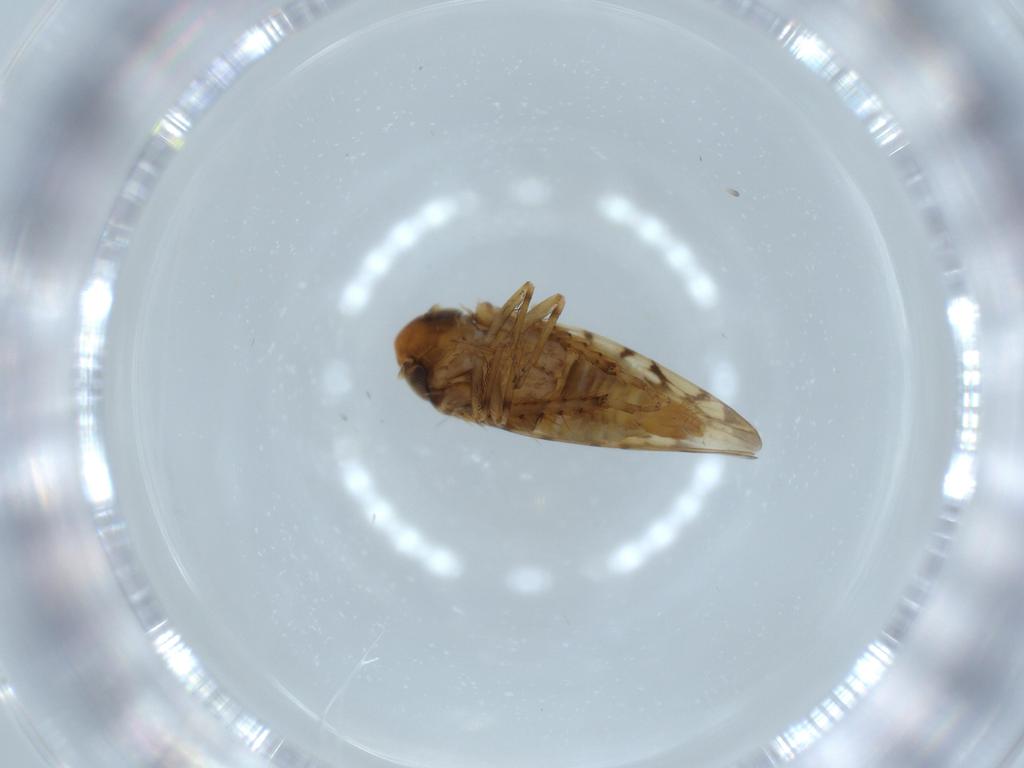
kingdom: Animalia
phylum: Arthropoda
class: Insecta
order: Hemiptera
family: Cicadellidae
